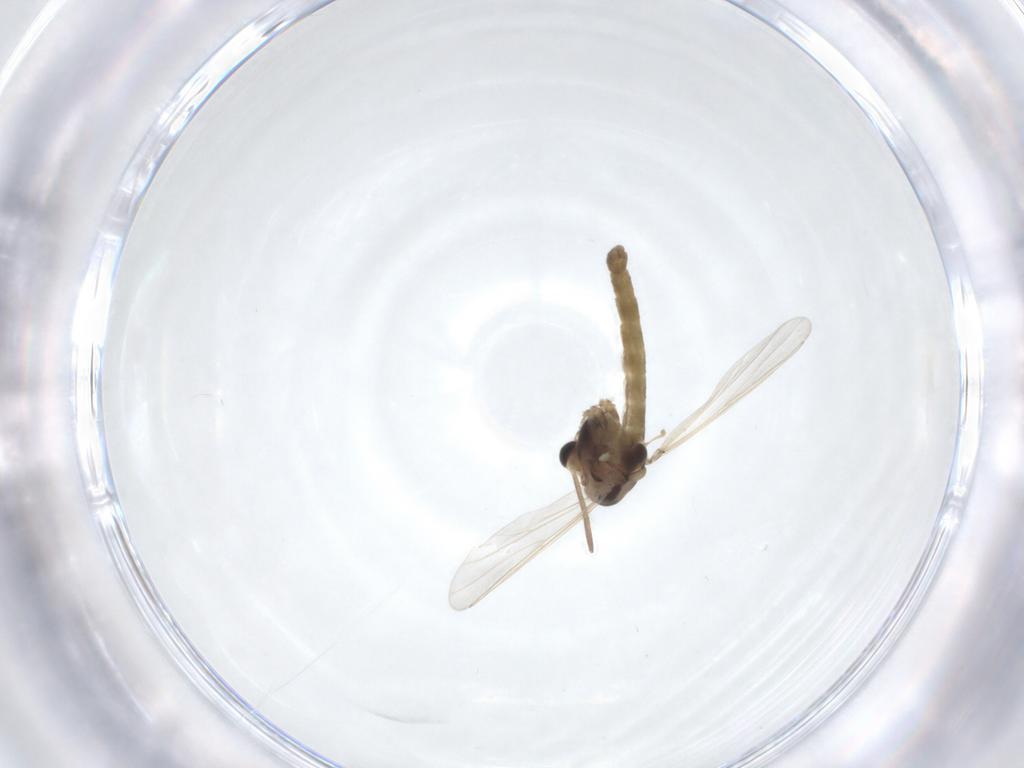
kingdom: Animalia
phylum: Arthropoda
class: Insecta
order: Diptera
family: Chironomidae
